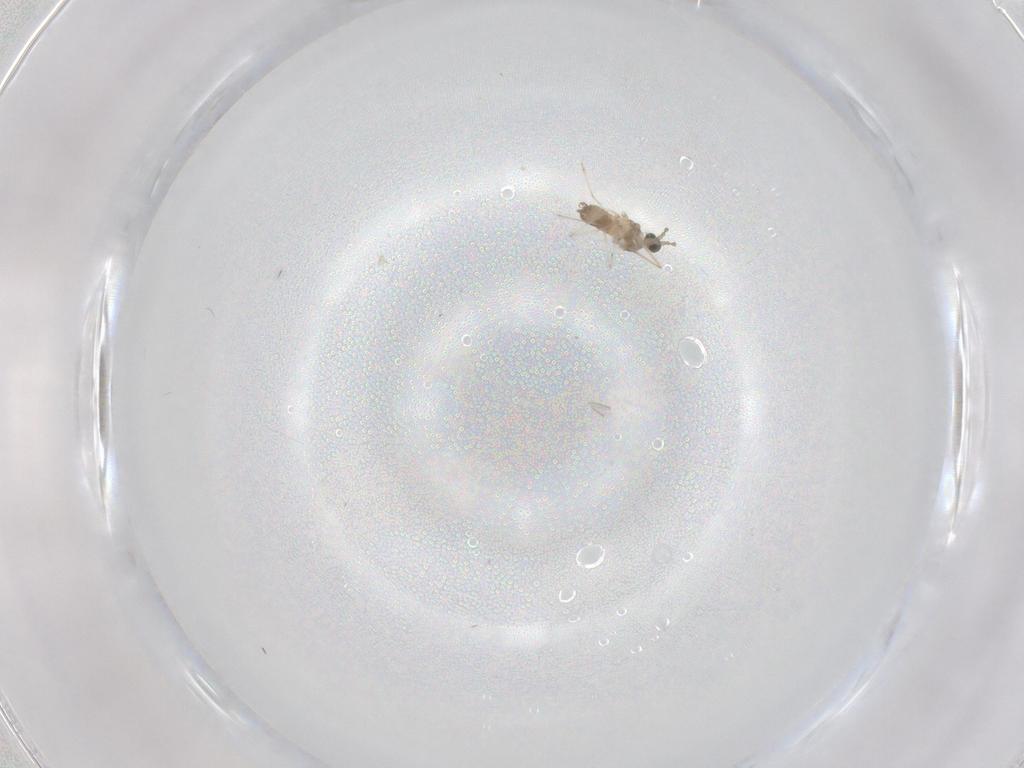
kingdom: Animalia
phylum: Arthropoda
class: Insecta
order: Diptera
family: Cecidomyiidae
